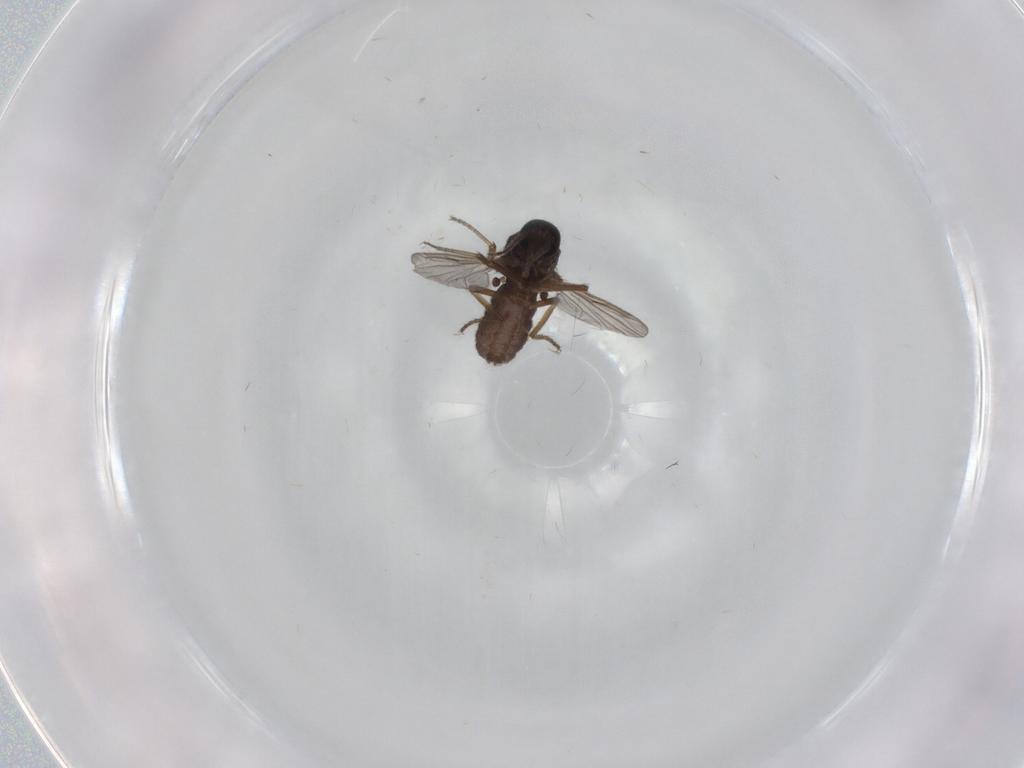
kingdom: Animalia
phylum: Arthropoda
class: Insecta
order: Diptera
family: Ceratopogonidae
